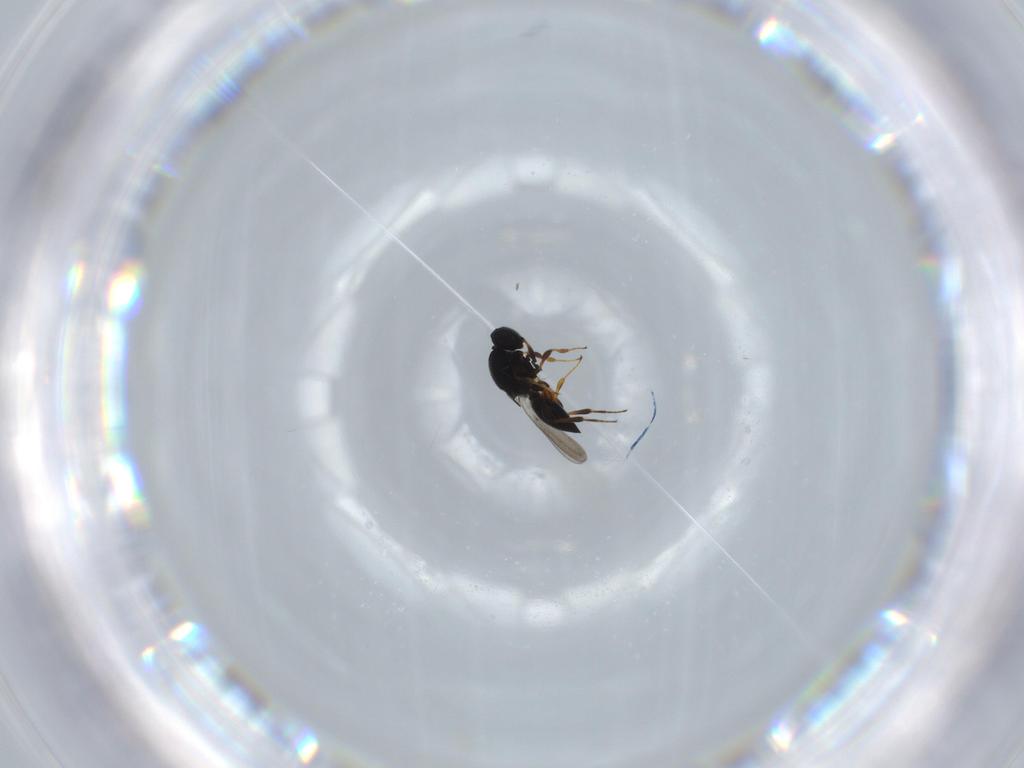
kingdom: Animalia
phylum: Arthropoda
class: Insecta
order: Hymenoptera
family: Platygastridae
